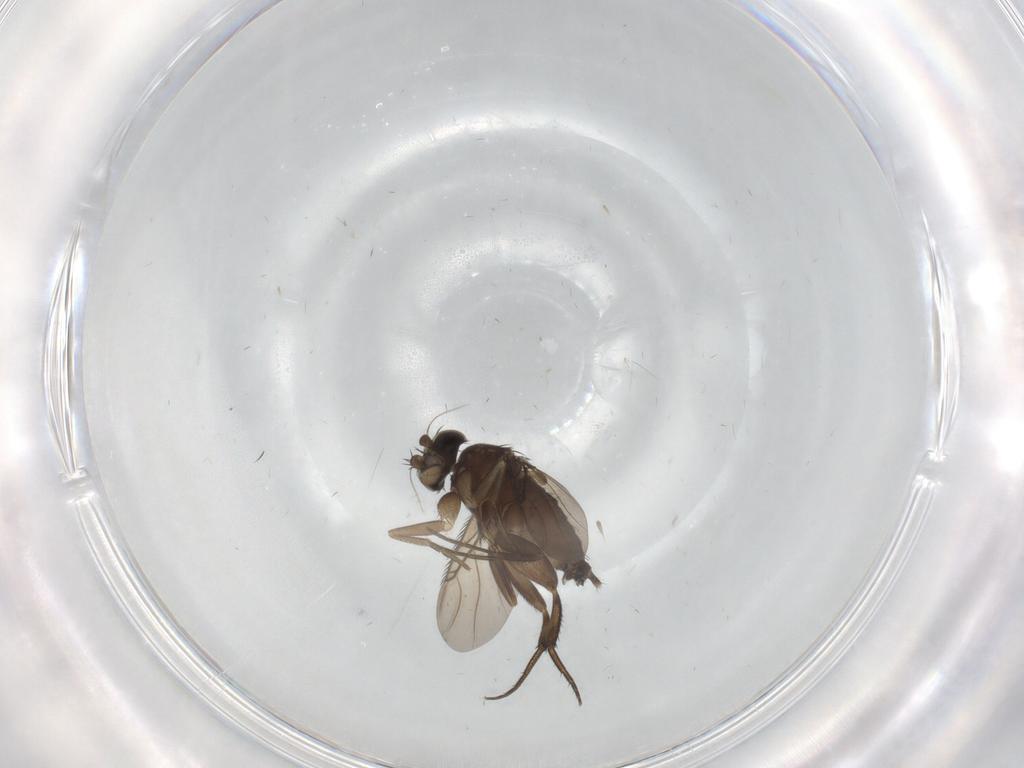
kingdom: Animalia
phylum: Arthropoda
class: Insecta
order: Diptera
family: Phoridae
